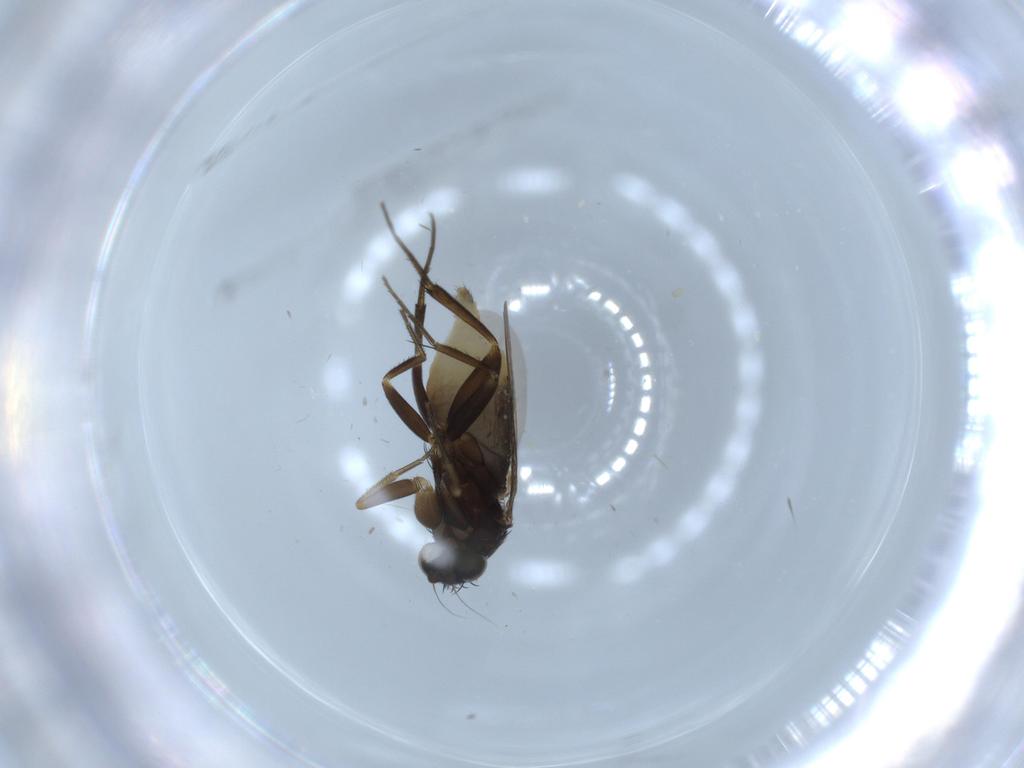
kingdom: Animalia
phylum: Arthropoda
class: Insecta
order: Diptera
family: Phoridae
